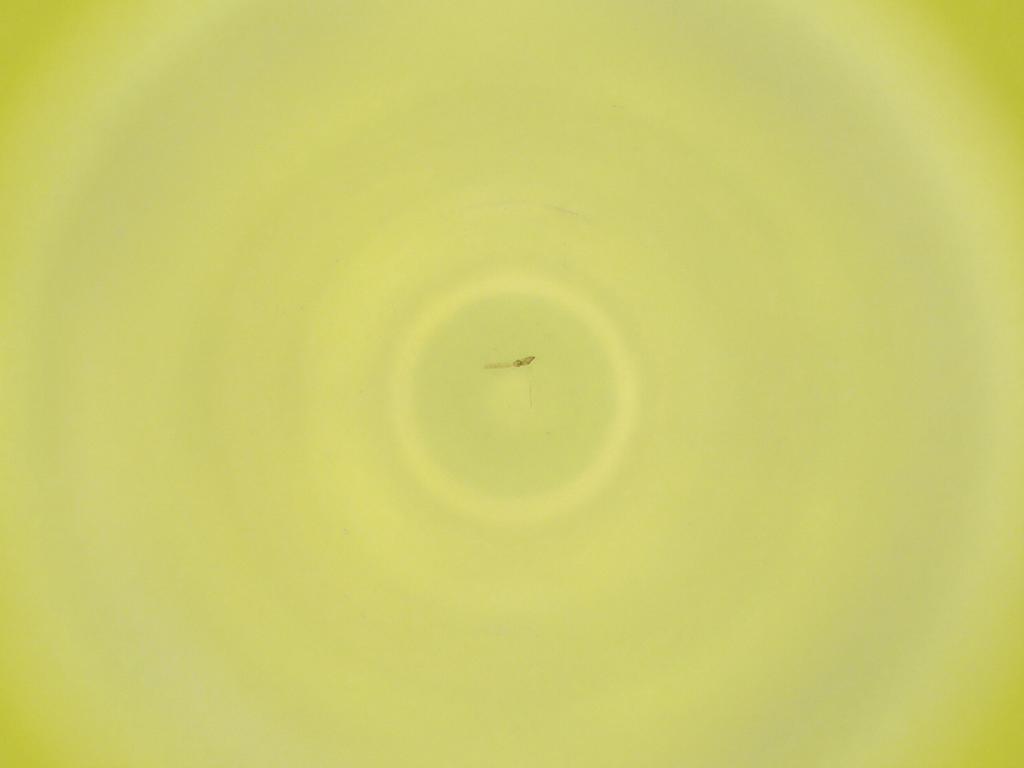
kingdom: Animalia
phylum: Arthropoda
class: Insecta
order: Diptera
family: Cecidomyiidae
